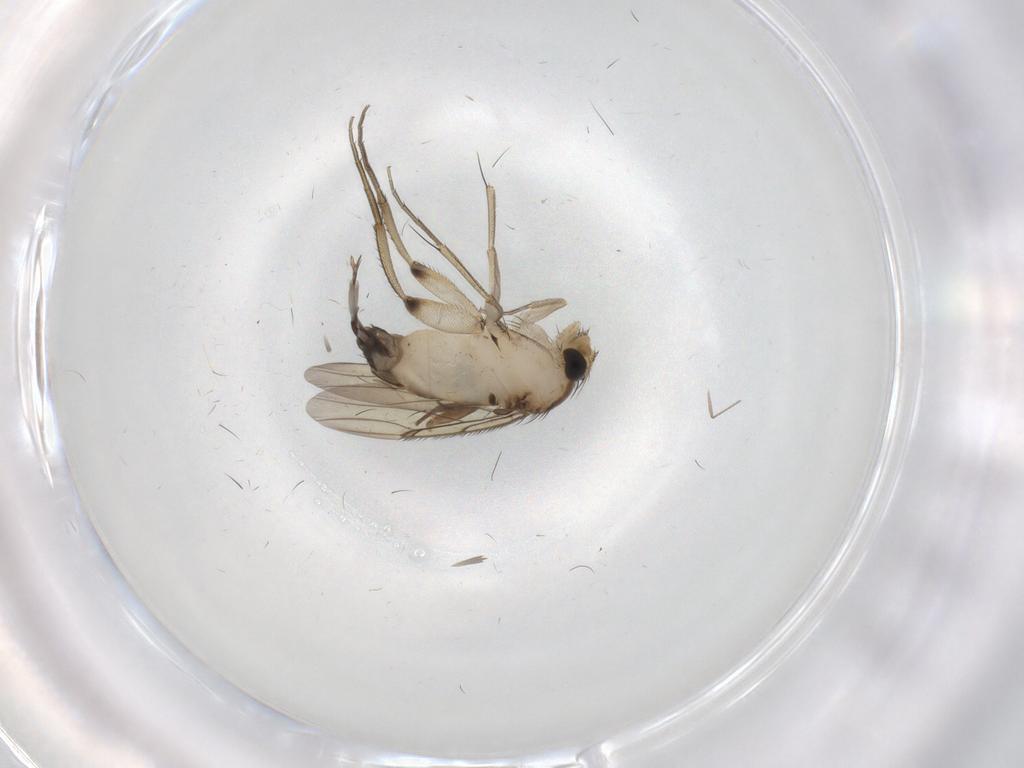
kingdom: Animalia
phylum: Arthropoda
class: Insecta
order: Diptera
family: Phoridae
